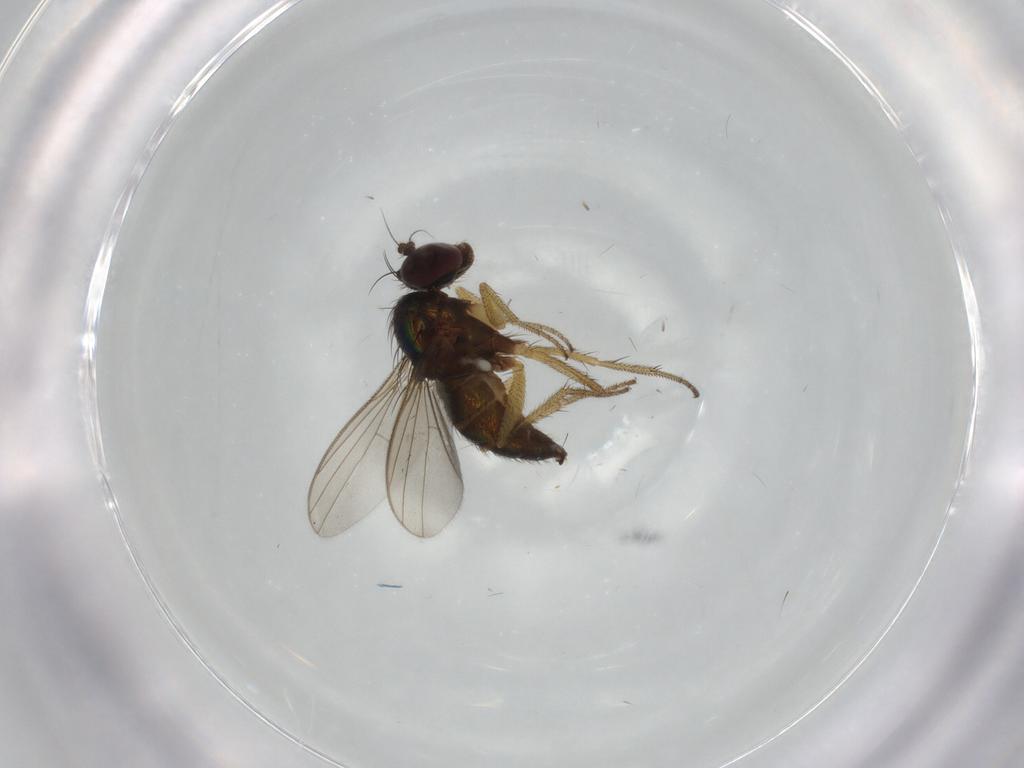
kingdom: Animalia
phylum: Arthropoda
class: Insecta
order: Diptera
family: Dolichopodidae
